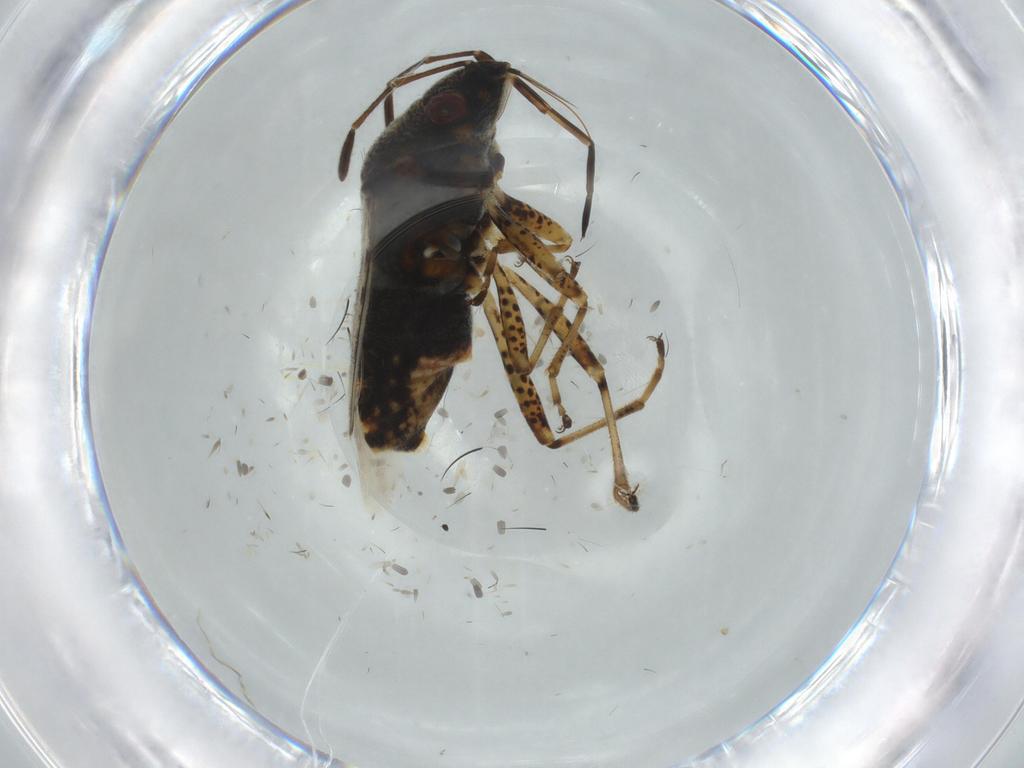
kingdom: Animalia
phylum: Arthropoda
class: Insecta
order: Hemiptera
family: Lygaeidae
